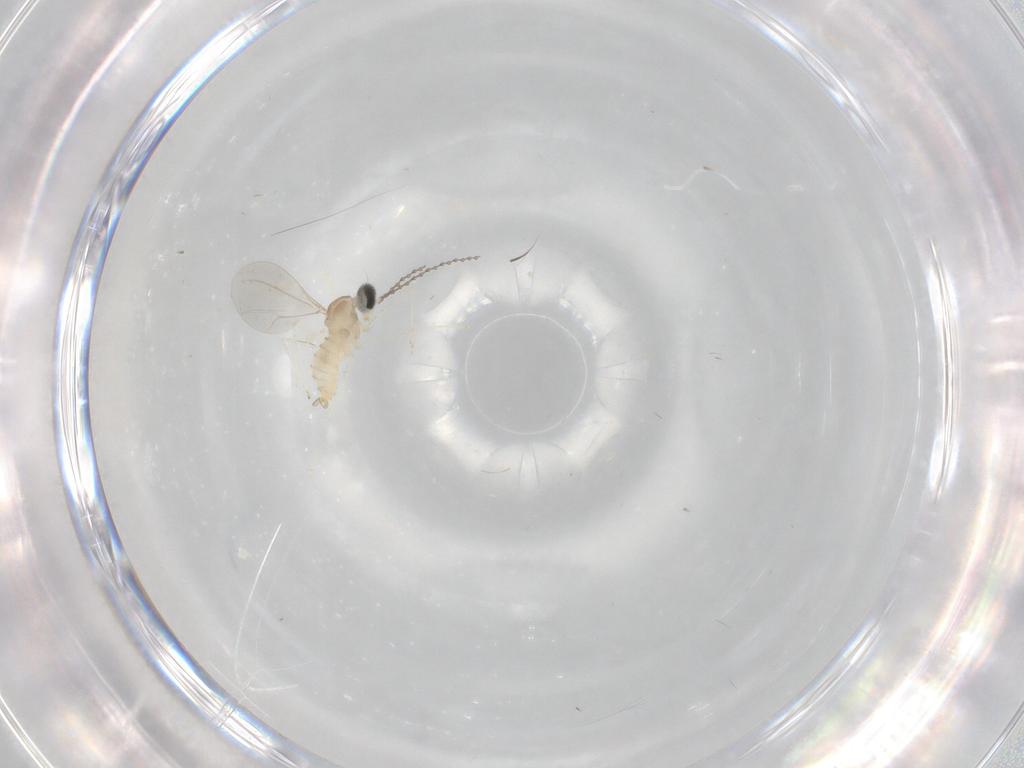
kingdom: Animalia
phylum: Arthropoda
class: Insecta
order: Diptera
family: Cecidomyiidae
